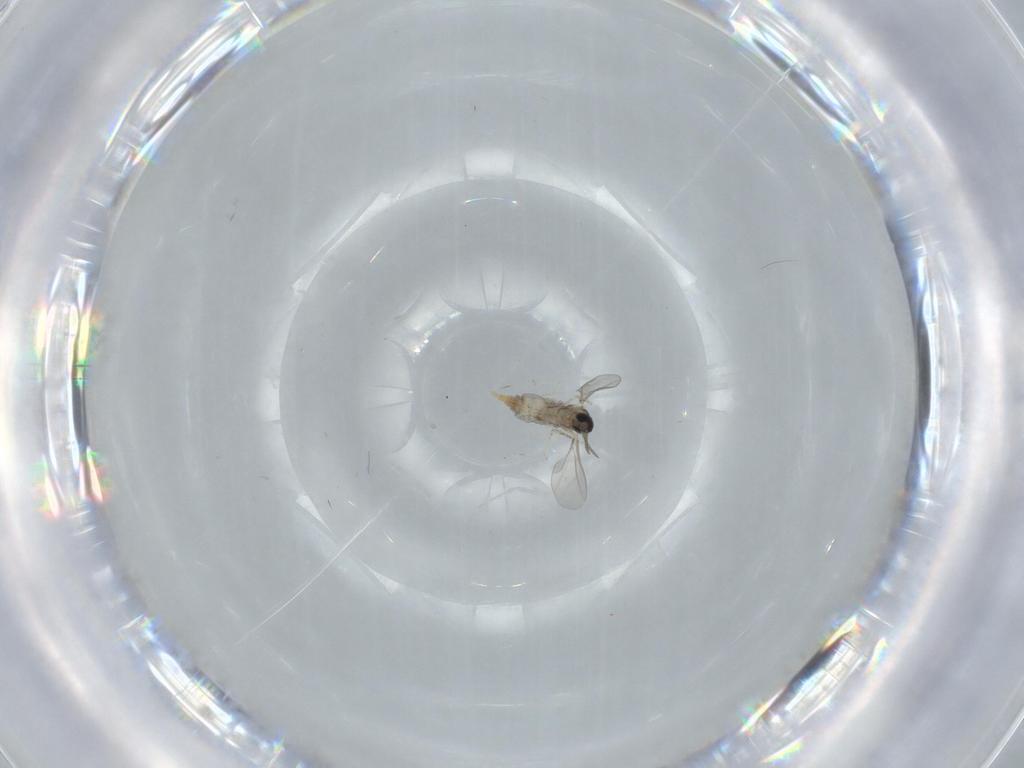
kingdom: Animalia
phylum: Arthropoda
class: Insecta
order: Diptera
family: Cecidomyiidae
